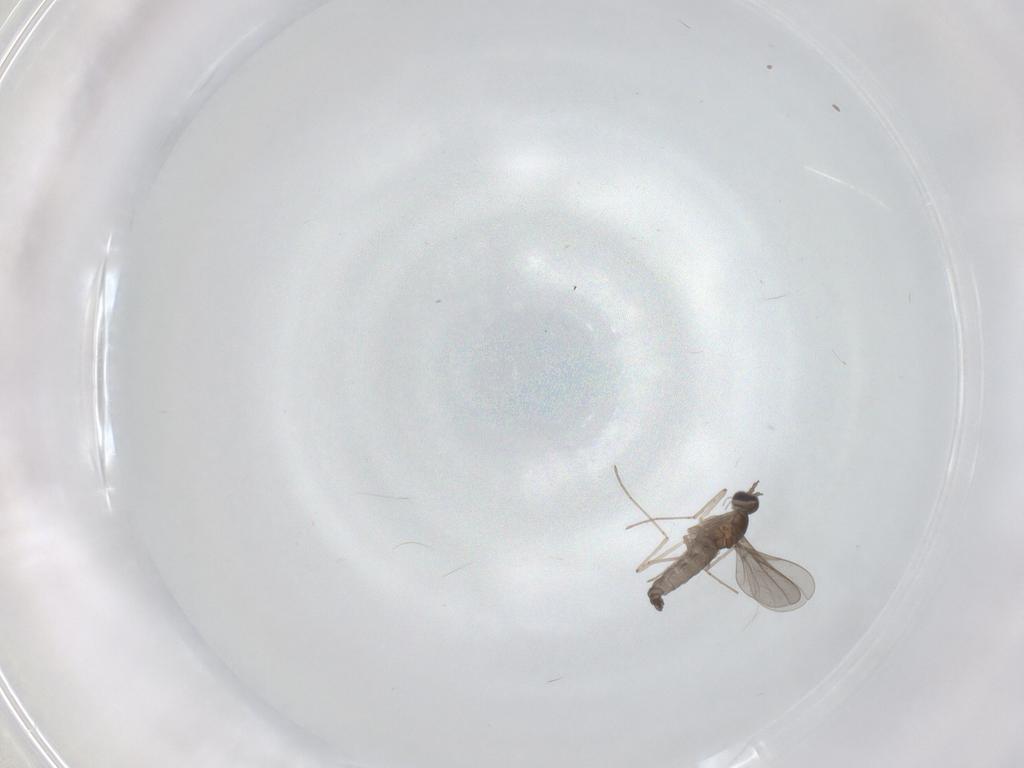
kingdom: Animalia
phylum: Arthropoda
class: Insecta
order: Diptera
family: Cecidomyiidae
